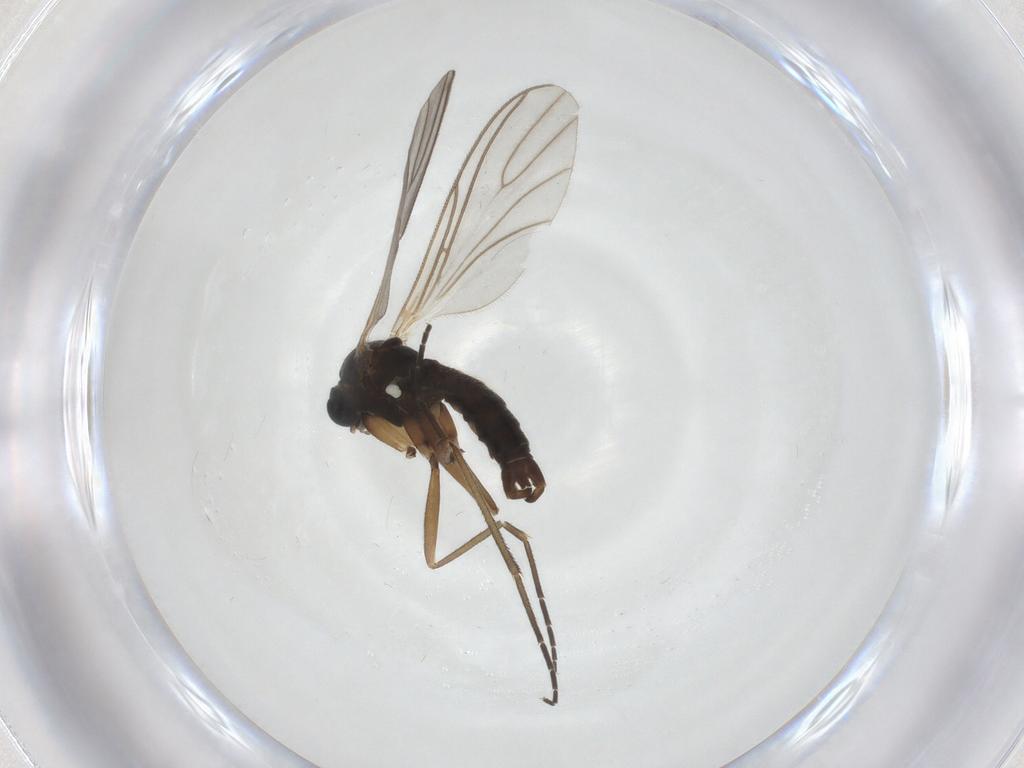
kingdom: Animalia
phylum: Arthropoda
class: Insecta
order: Diptera
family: Sciaridae
